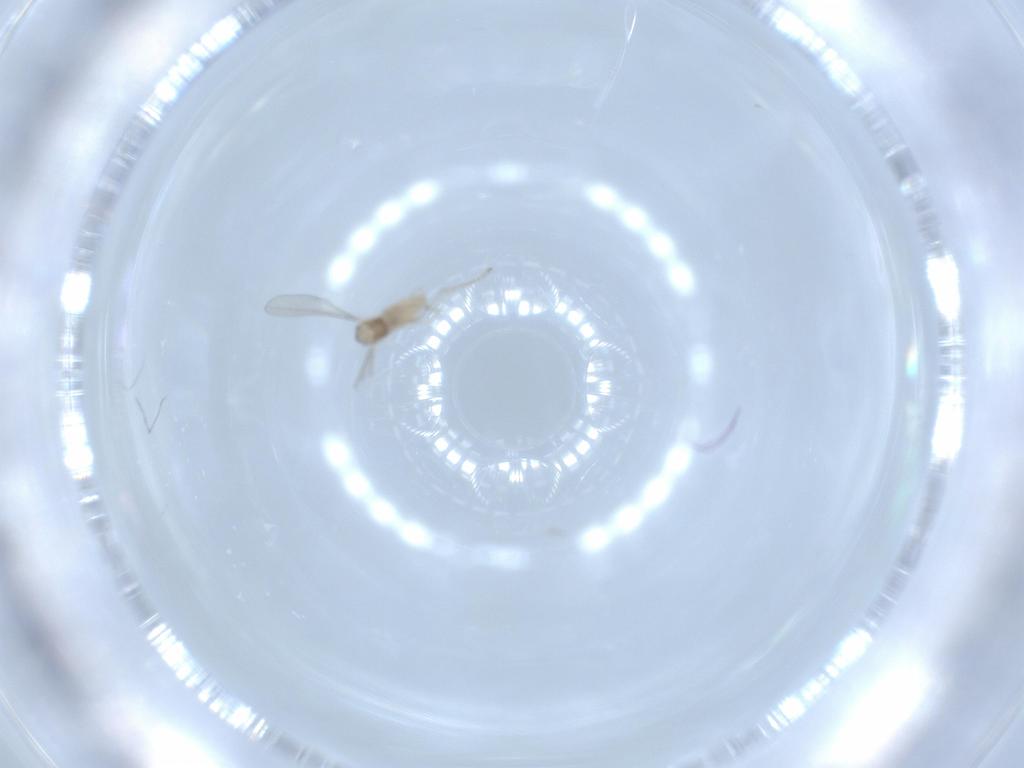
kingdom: Animalia
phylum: Arthropoda
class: Insecta
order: Diptera
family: Cecidomyiidae
